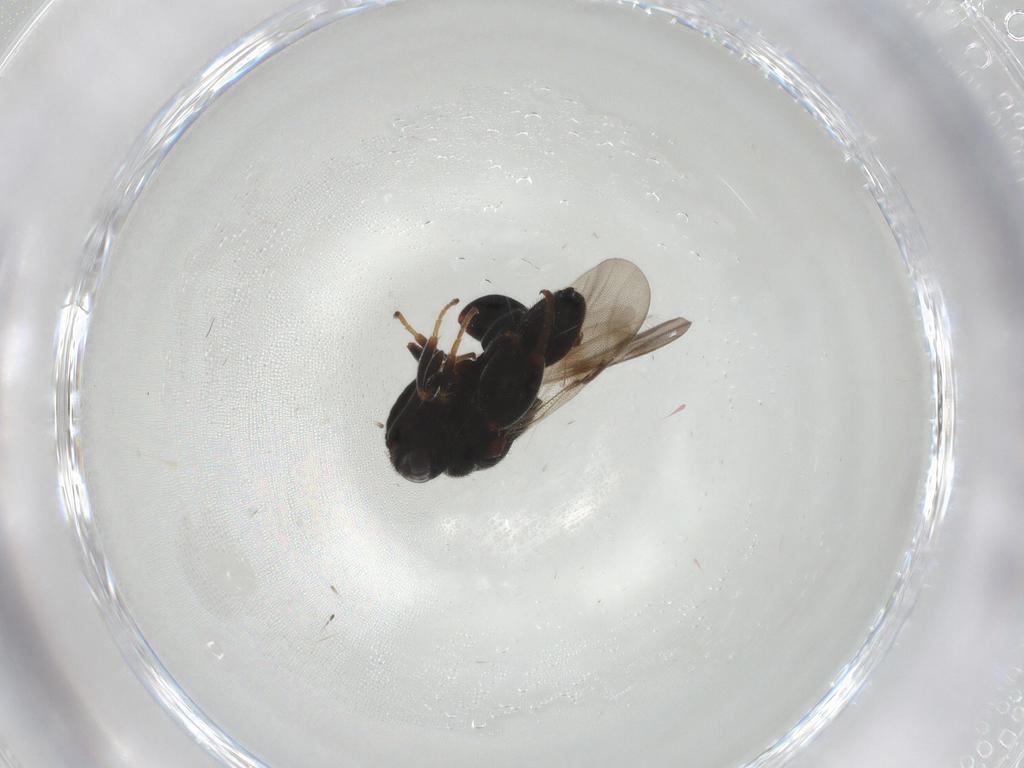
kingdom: Animalia
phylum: Arthropoda
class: Insecta
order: Hymenoptera
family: Chalcididae
